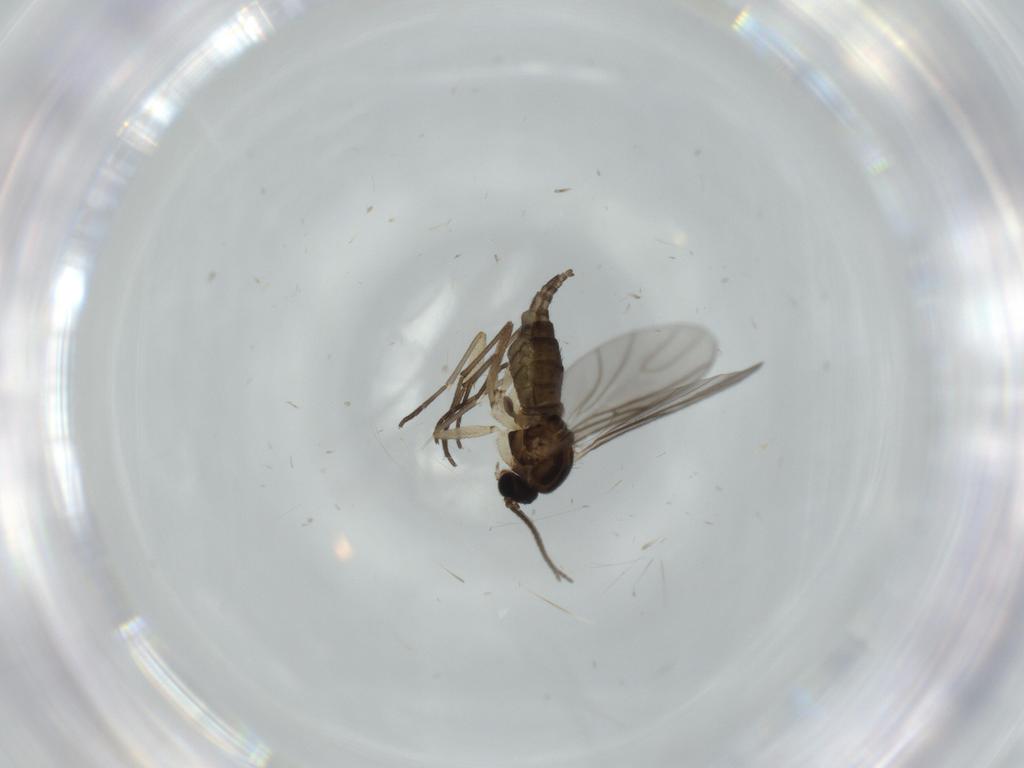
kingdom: Animalia
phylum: Arthropoda
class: Insecta
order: Diptera
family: Sciaridae
